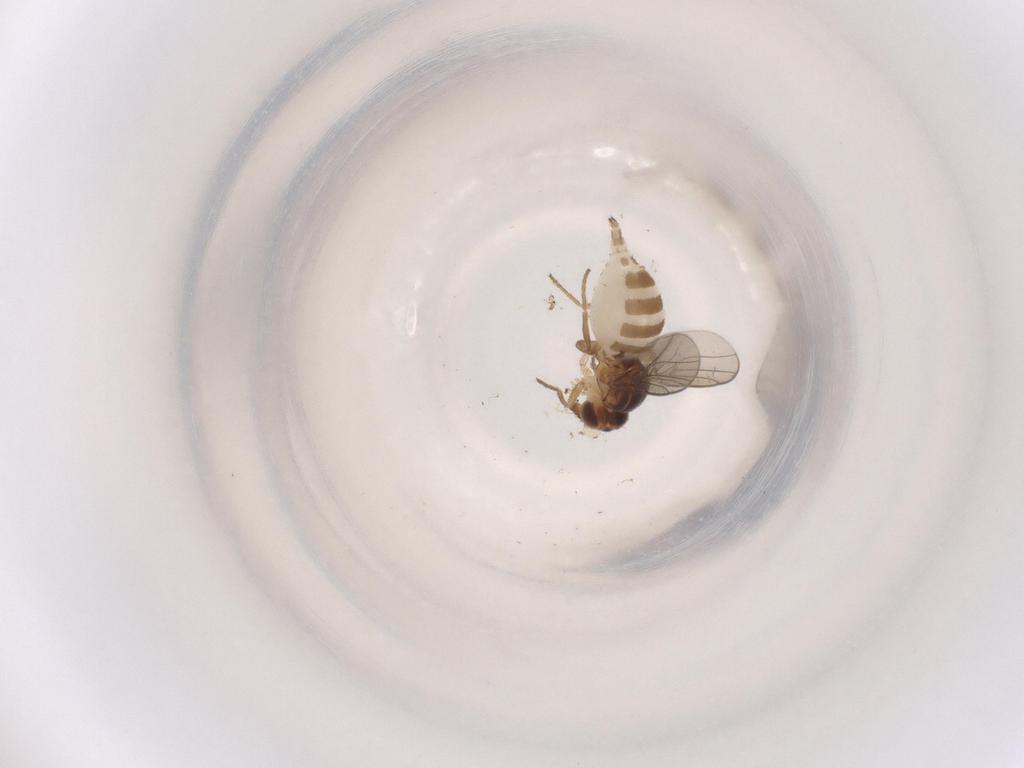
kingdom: Animalia
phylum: Arthropoda
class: Insecta
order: Diptera
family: Chloropidae
